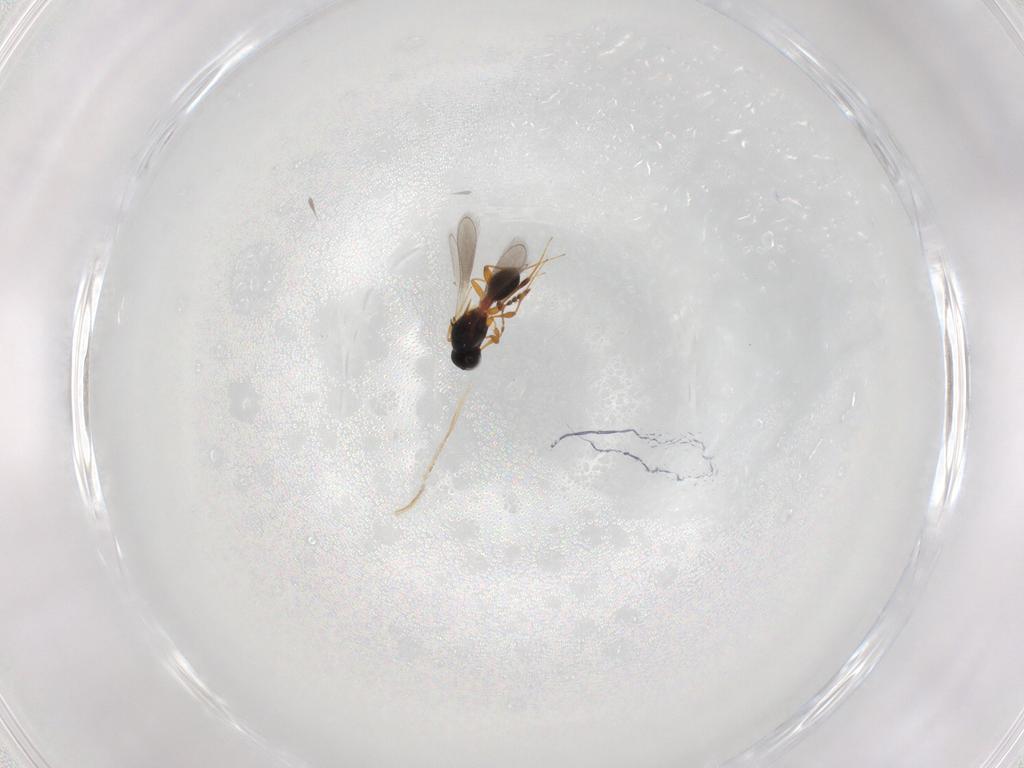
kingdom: Animalia
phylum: Arthropoda
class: Insecta
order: Hymenoptera
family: Platygastridae
